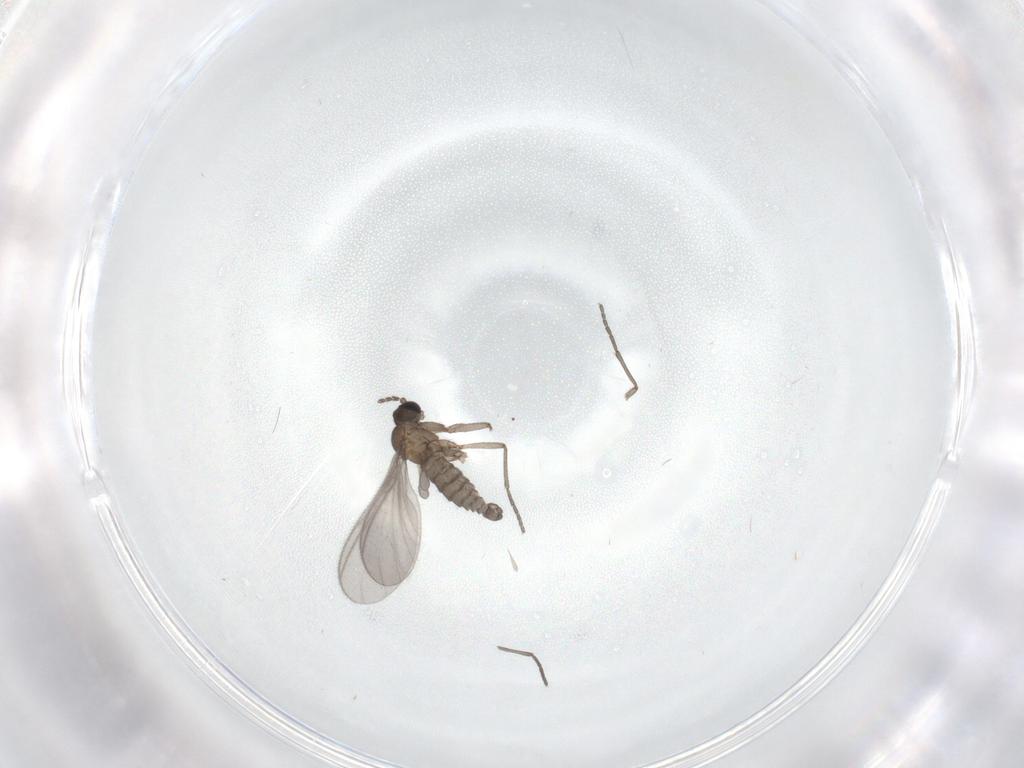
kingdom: Animalia
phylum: Arthropoda
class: Insecta
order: Diptera
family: Sciaridae
